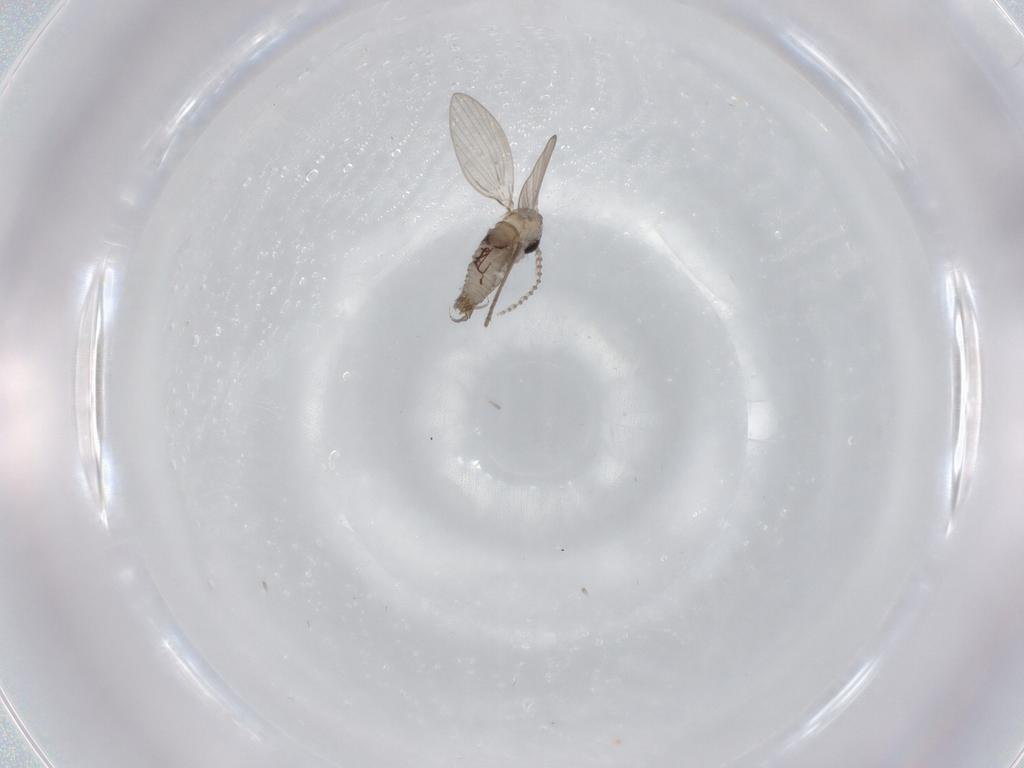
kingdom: Animalia
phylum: Arthropoda
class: Insecta
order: Diptera
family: Psychodidae
